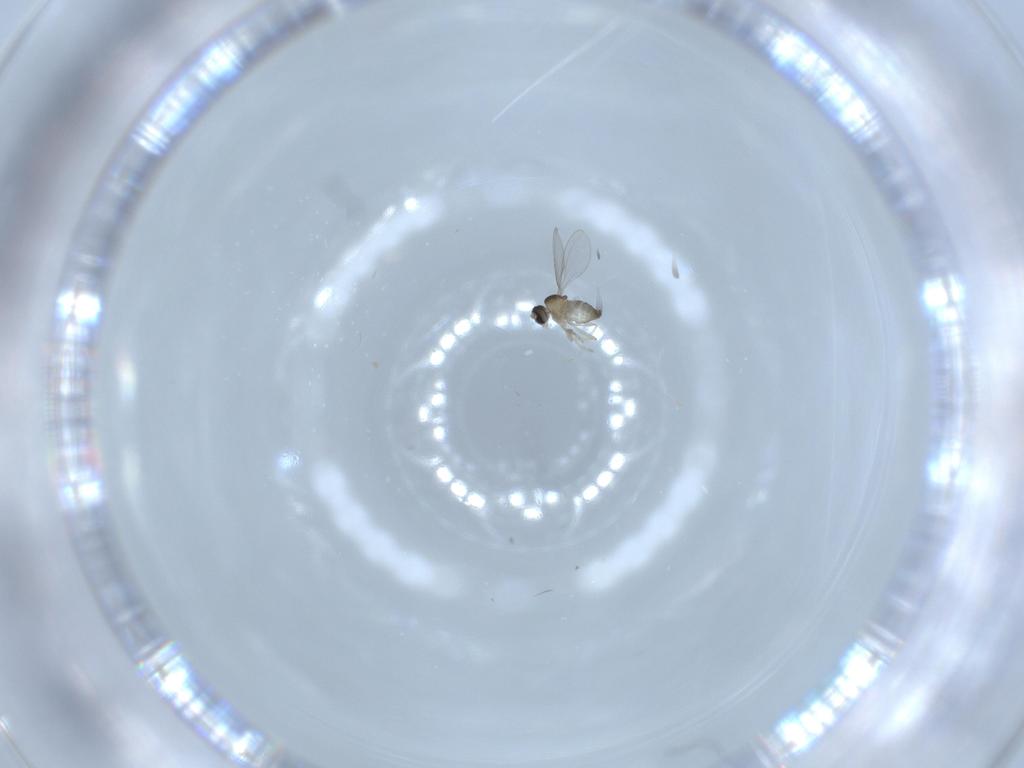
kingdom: Animalia
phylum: Arthropoda
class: Insecta
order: Diptera
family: Cecidomyiidae
